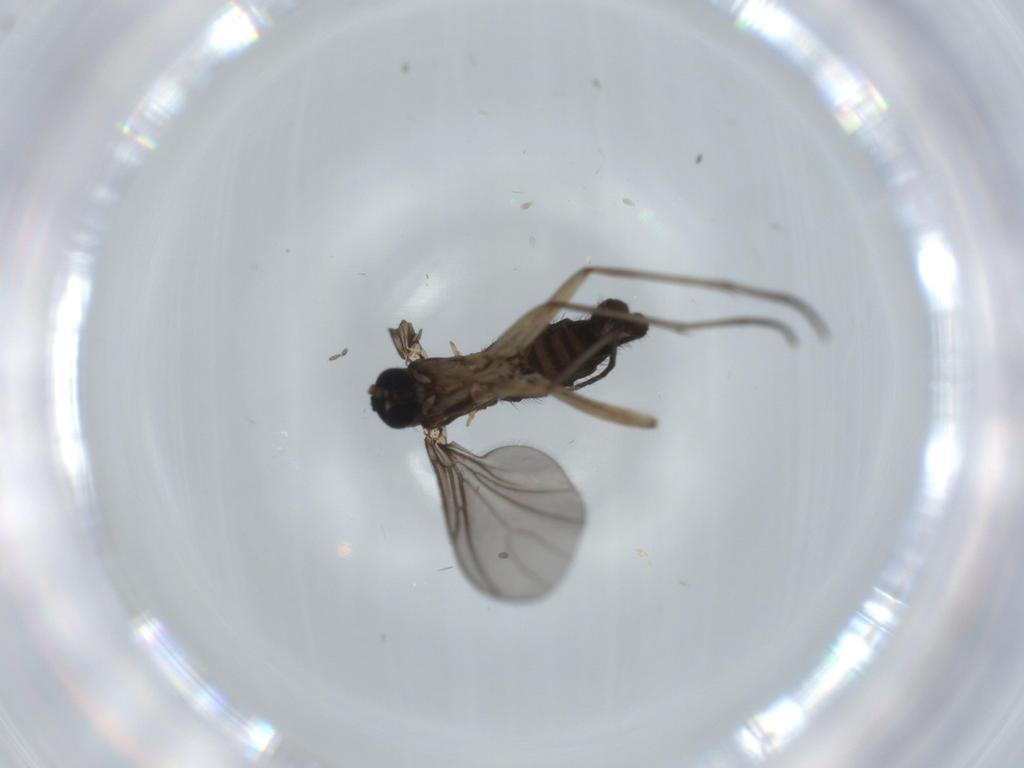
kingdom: Animalia
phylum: Arthropoda
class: Insecta
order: Diptera
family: Sciaridae
